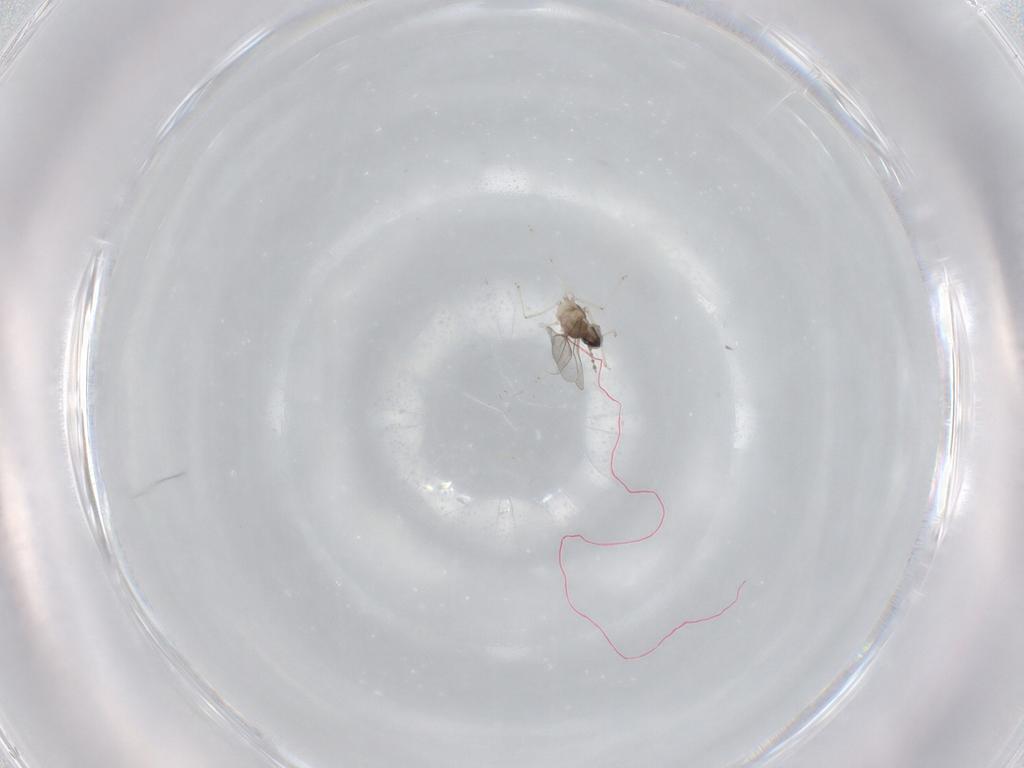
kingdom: Animalia
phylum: Arthropoda
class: Insecta
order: Diptera
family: Cecidomyiidae
